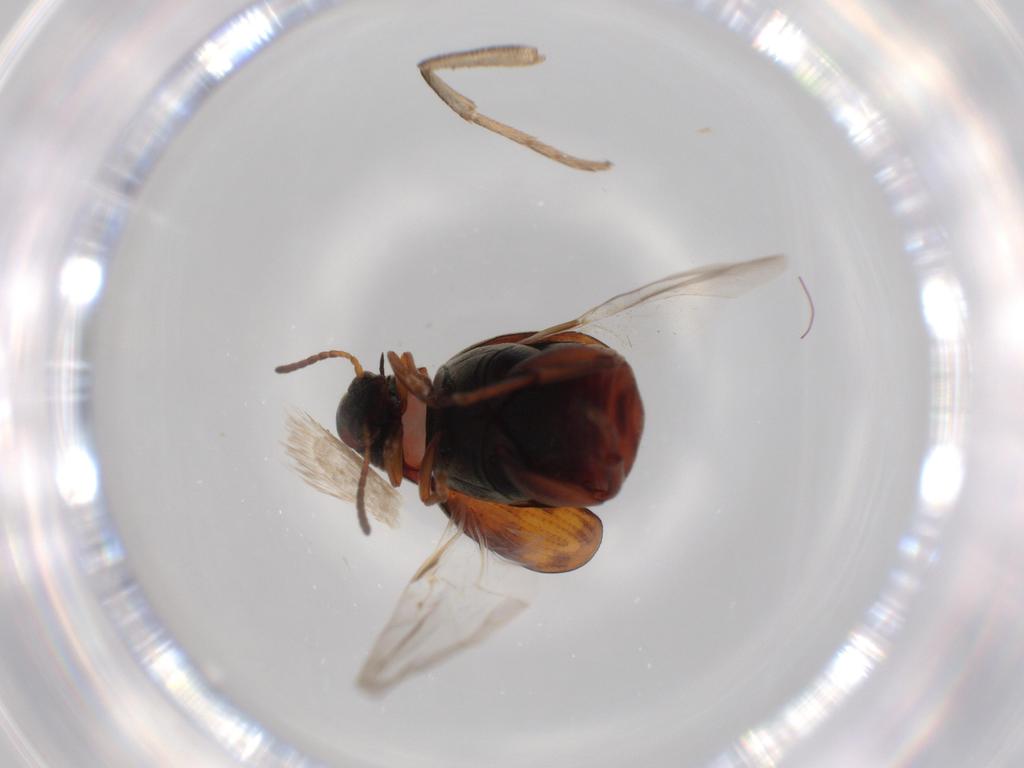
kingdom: Animalia
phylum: Arthropoda
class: Insecta
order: Coleoptera
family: Chrysomelidae
